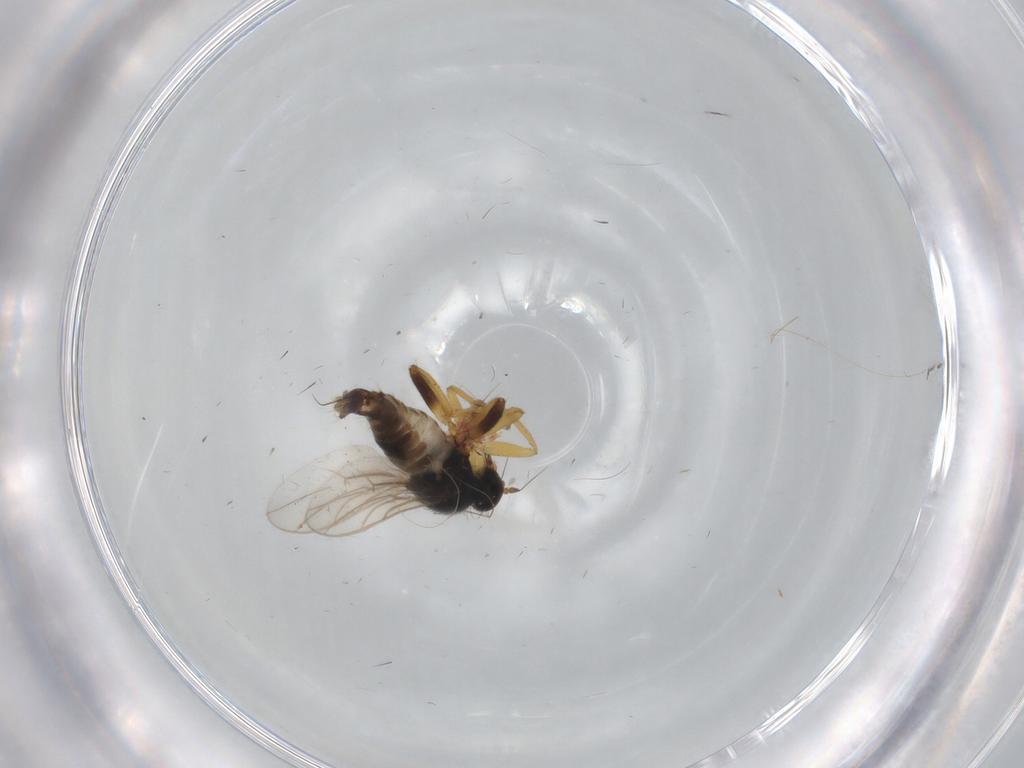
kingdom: Animalia
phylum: Arthropoda
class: Insecta
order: Diptera
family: Hybotidae
